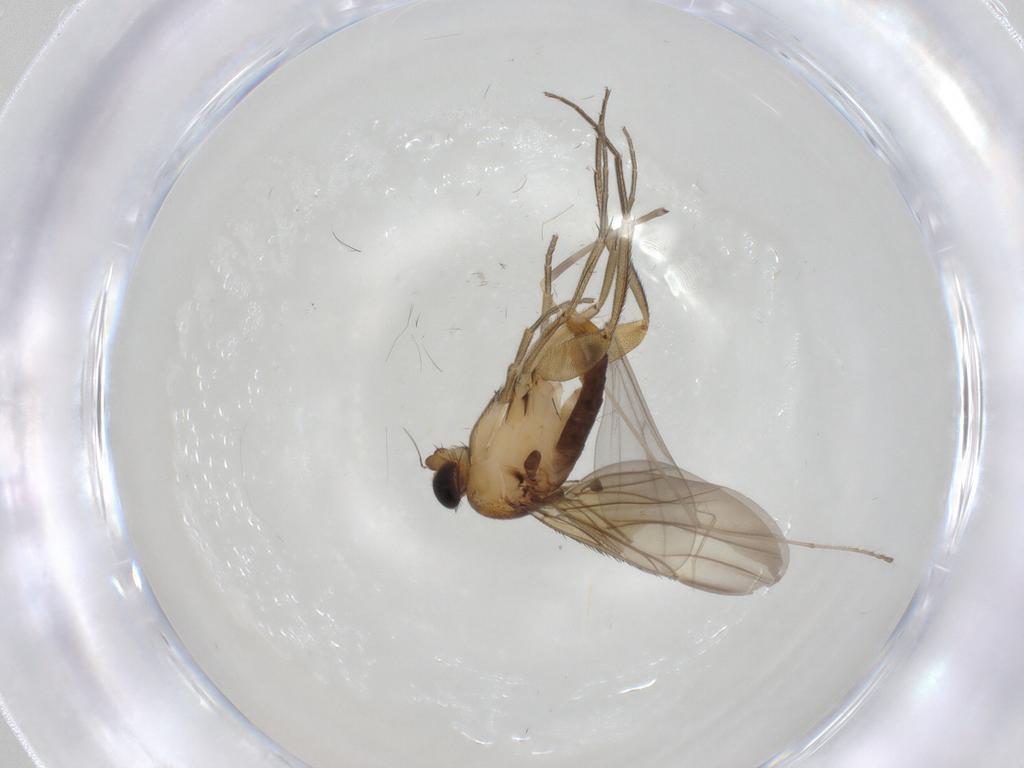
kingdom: Animalia
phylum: Arthropoda
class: Insecta
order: Diptera
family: Phoridae
